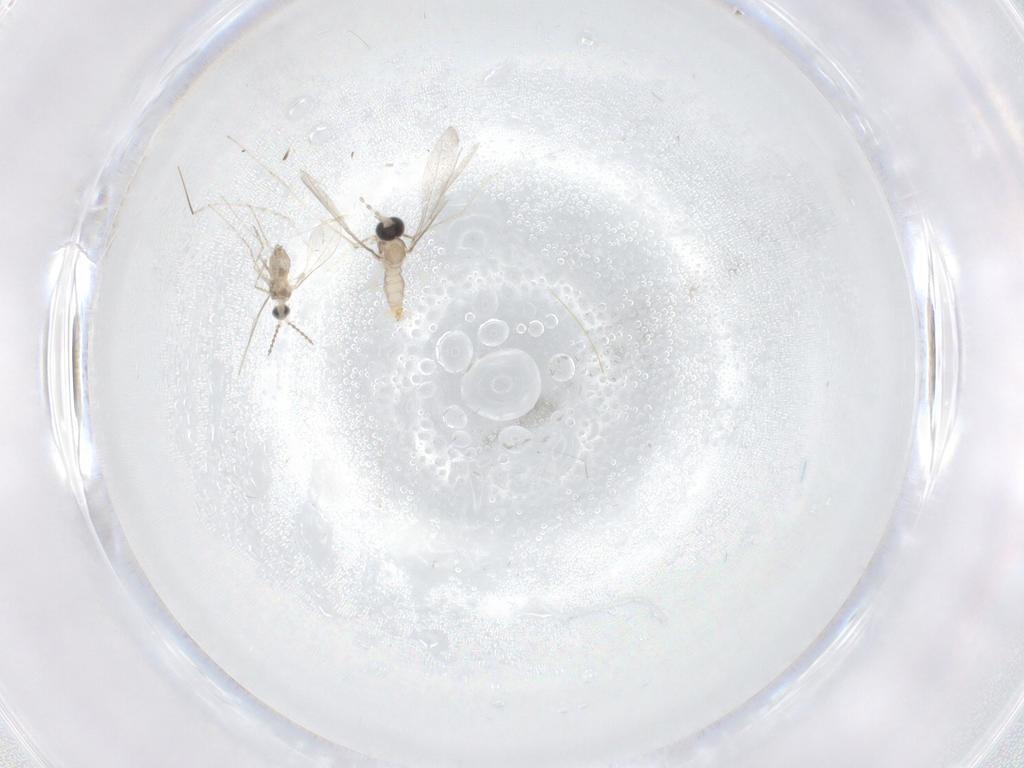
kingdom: Animalia
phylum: Arthropoda
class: Insecta
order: Diptera
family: Cecidomyiidae
